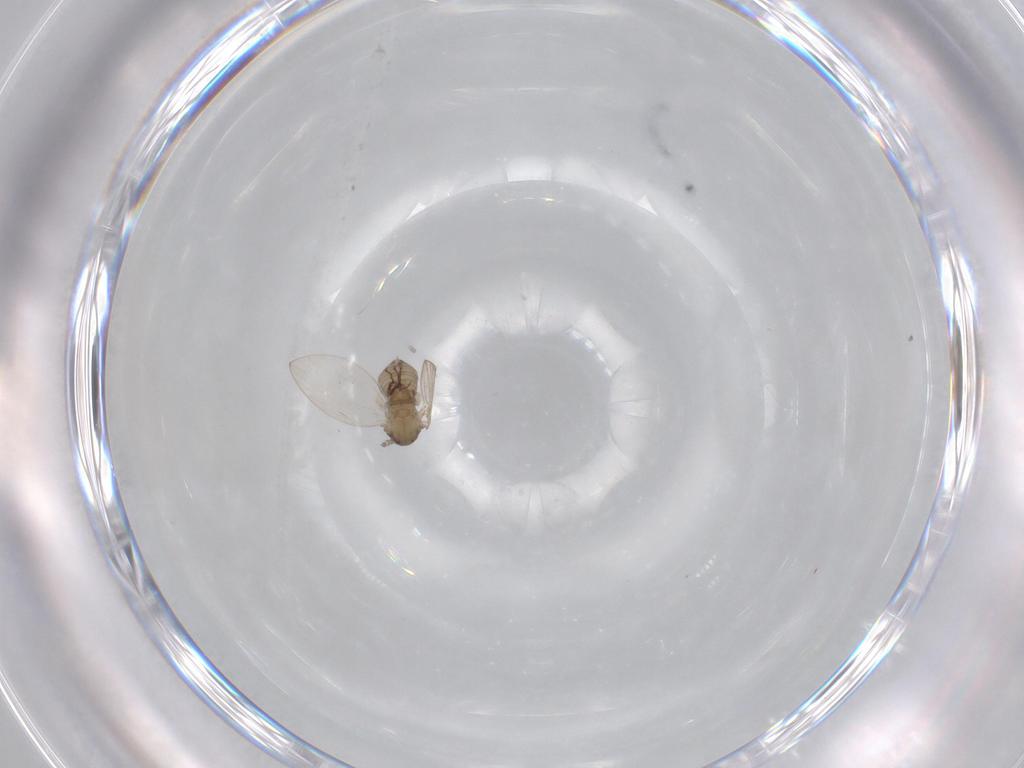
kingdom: Animalia
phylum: Arthropoda
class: Insecta
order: Diptera
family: Psychodidae
